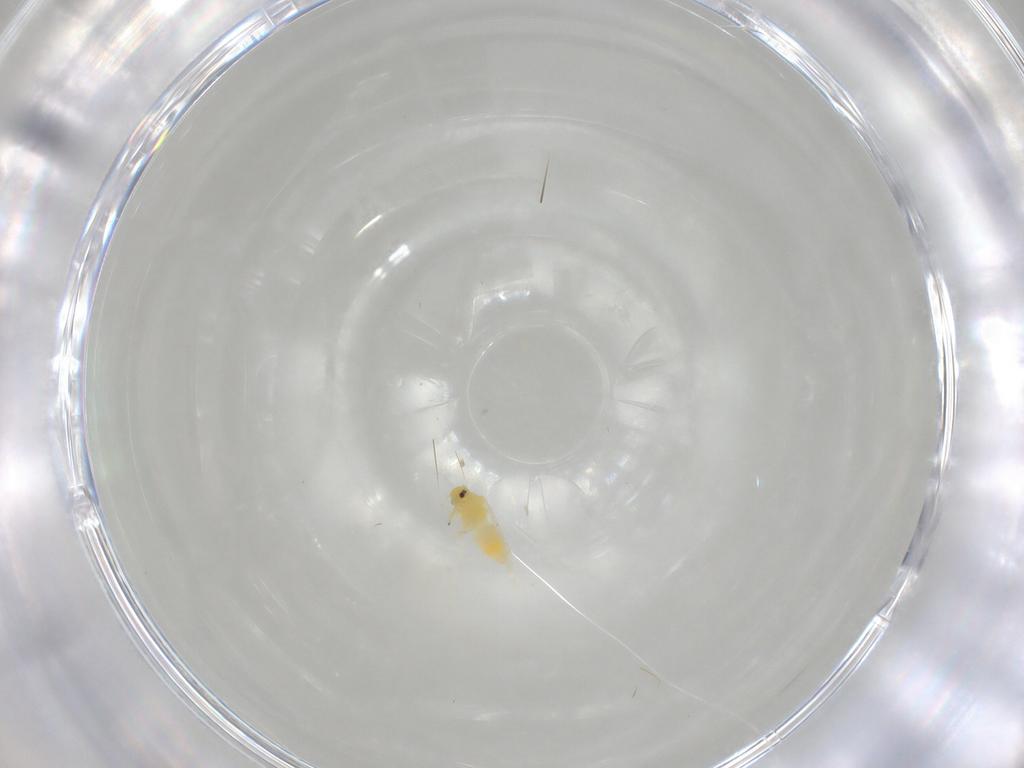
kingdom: Animalia
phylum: Arthropoda
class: Insecta
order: Hemiptera
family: Aleyrodidae
